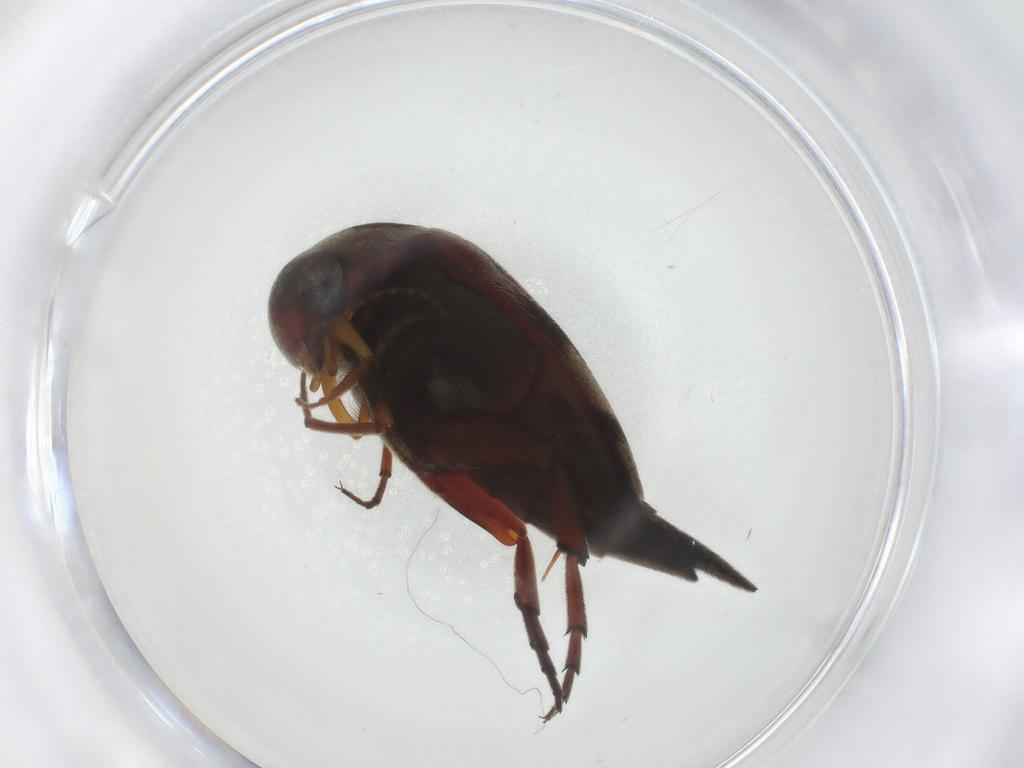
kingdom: Animalia
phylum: Arthropoda
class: Insecta
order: Coleoptera
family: Mordellidae
